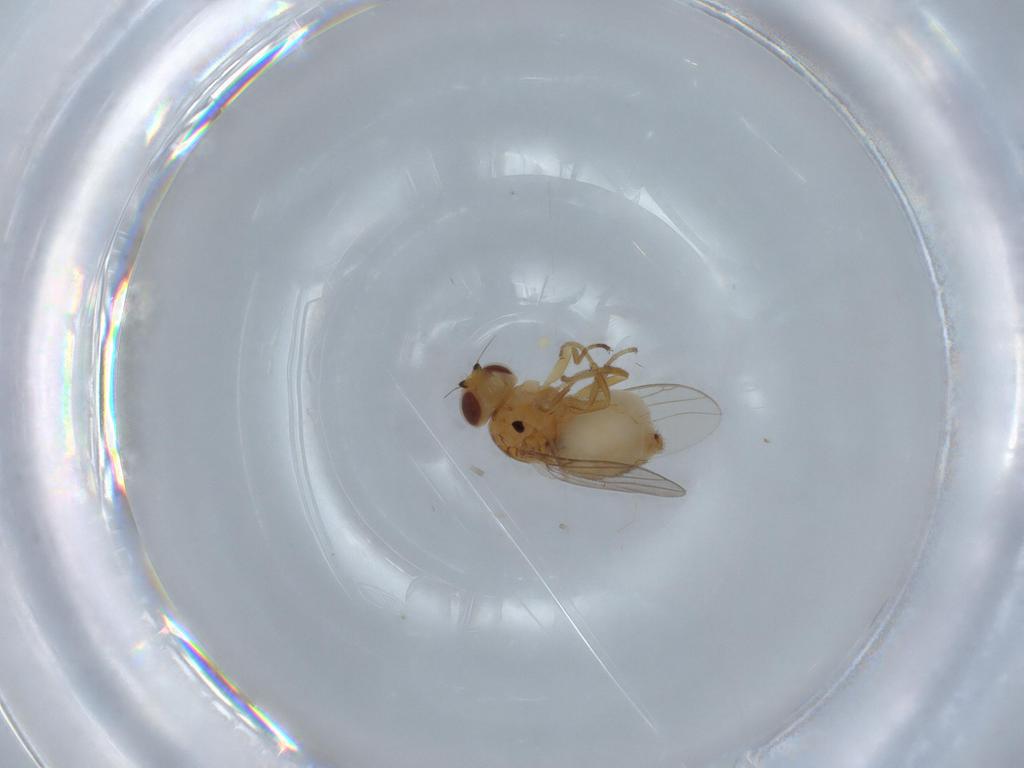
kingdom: Animalia
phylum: Arthropoda
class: Insecta
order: Diptera
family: Chloropidae
